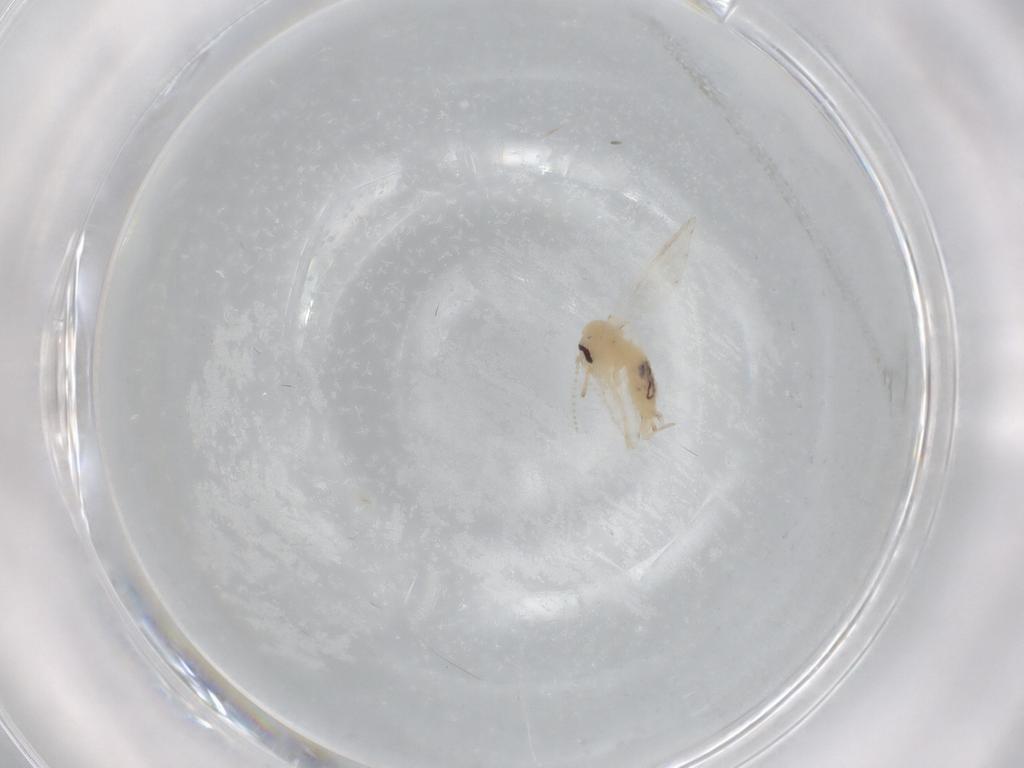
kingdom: Animalia
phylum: Arthropoda
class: Insecta
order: Diptera
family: Psychodidae
